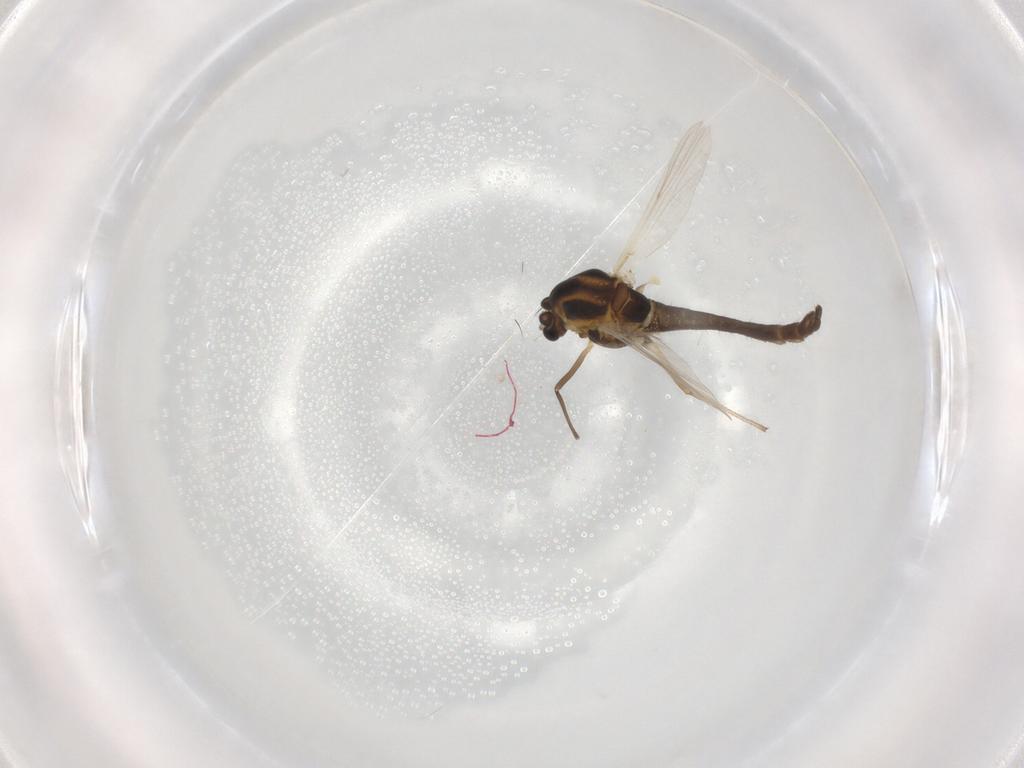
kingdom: Animalia
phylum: Arthropoda
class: Insecta
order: Diptera
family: Chironomidae
